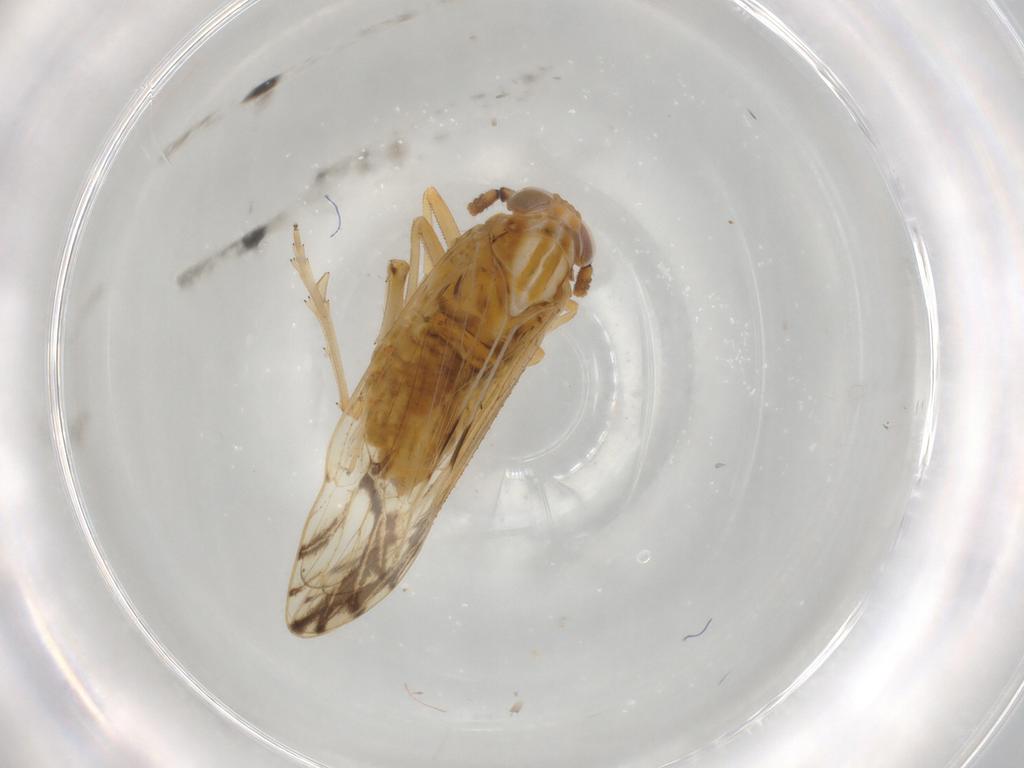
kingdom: Animalia
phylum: Arthropoda
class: Insecta
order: Hemiptera
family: Delphacidae
